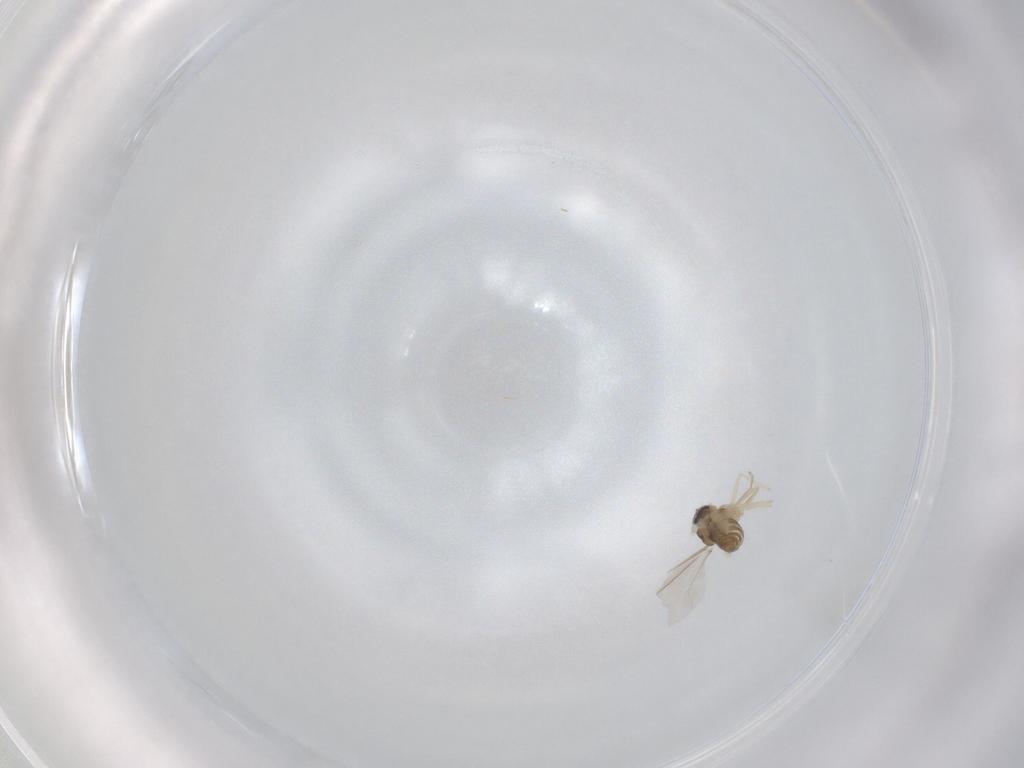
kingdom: Animalia
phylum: Arthropoda
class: Insecta
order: Diptera
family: Cecidomyiidae
